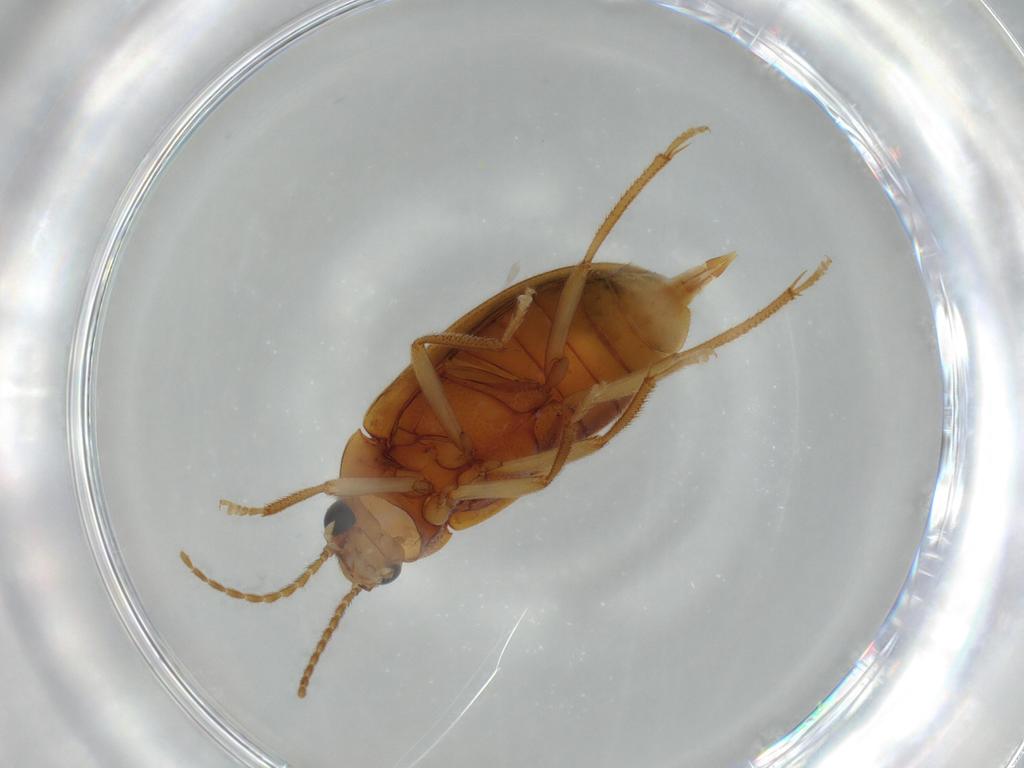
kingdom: Animalia
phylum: Arthropoda
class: Insecta
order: Coleoptera
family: Ptilodactylidae
